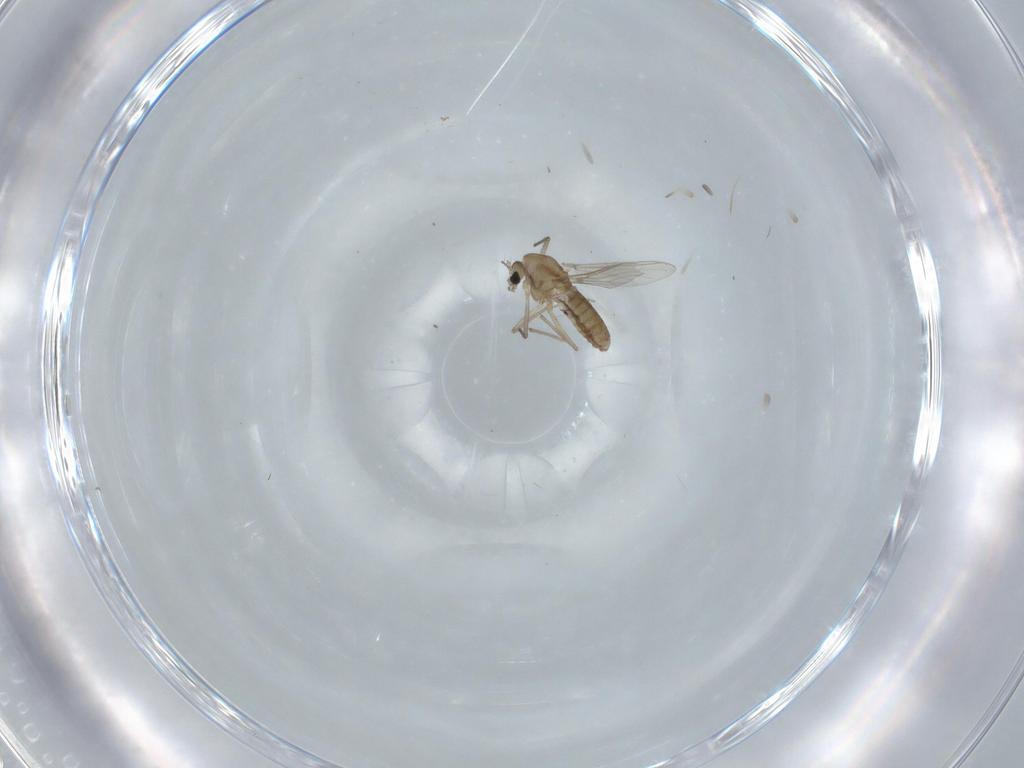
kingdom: Animalia
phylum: Arthropoda
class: Insecta
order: Diptera
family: Chironomidae
